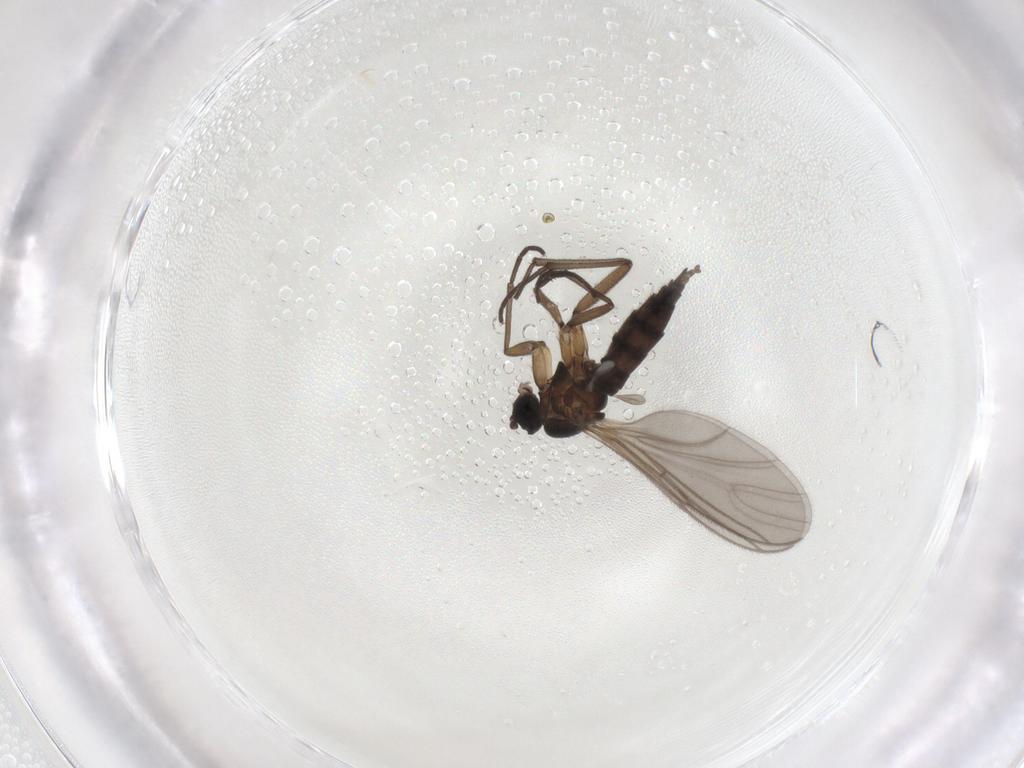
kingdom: Animalia
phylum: Arthropoda
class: Insecta
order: Diptera
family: Sciaridae
